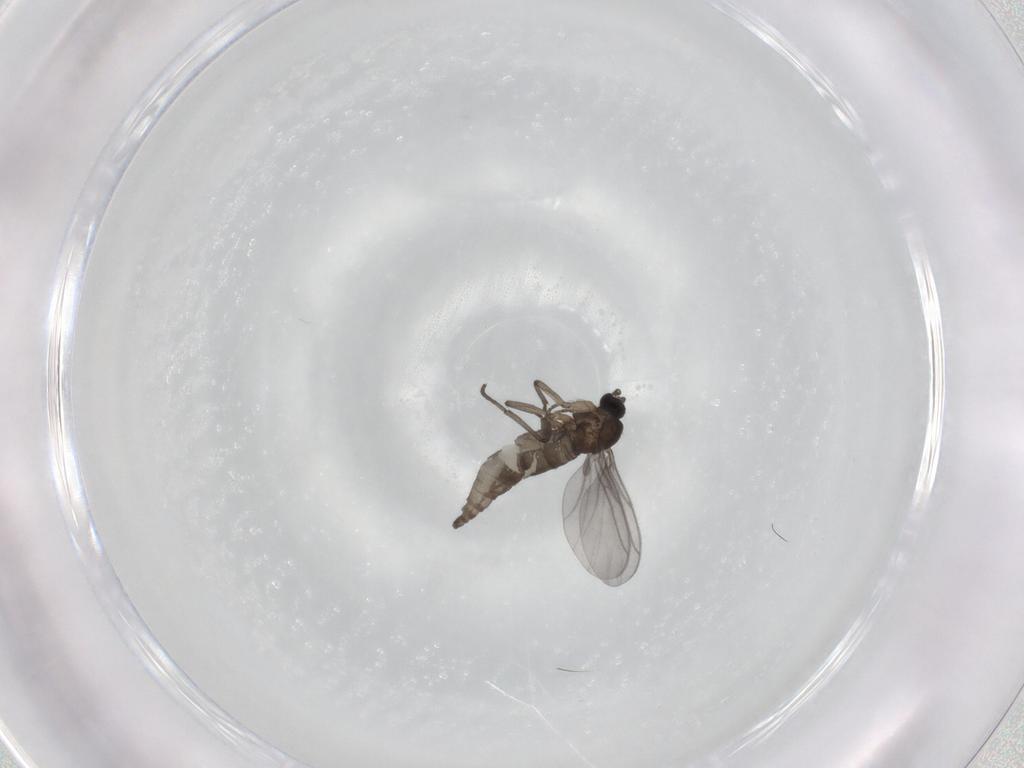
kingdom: Animalia
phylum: Arthropoda
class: Insecta
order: Diptera
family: Sciaridae
